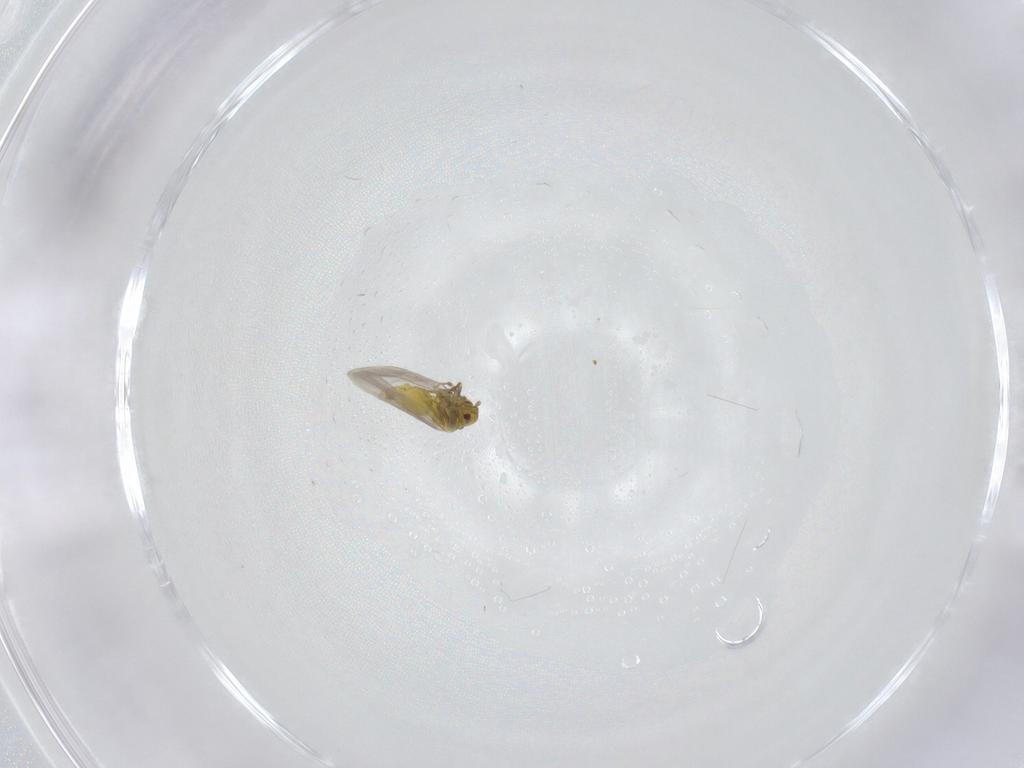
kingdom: Animalia
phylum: Arthropoda
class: Insecta
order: Hemiptera
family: Aleyrodidae
